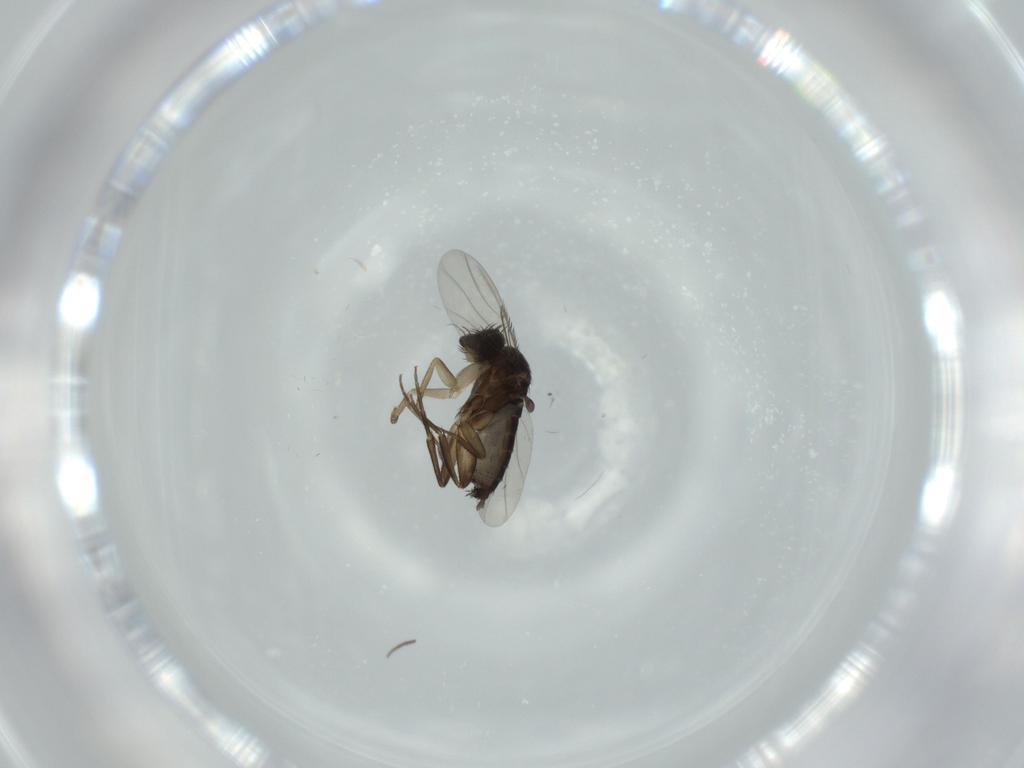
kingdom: Animalia
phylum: Arthropoda
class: Insecta
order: Diptera
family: Phoridae
